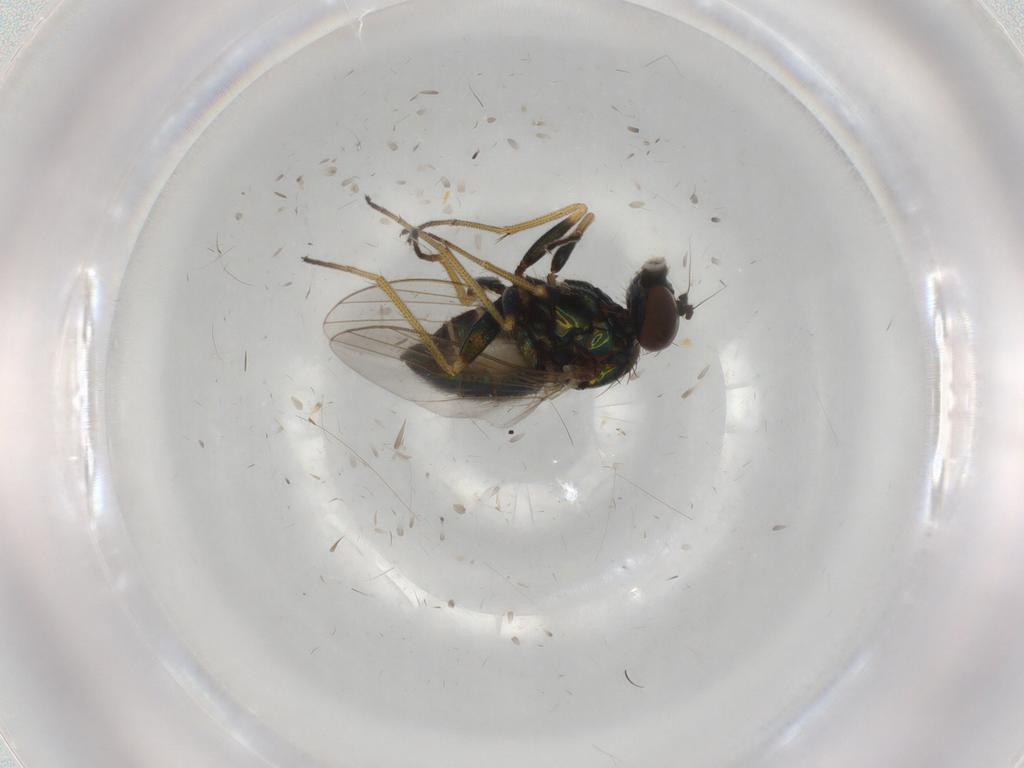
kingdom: Animalia
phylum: Arthropoda
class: Insecta
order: Diptera
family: Dolichopodidae
